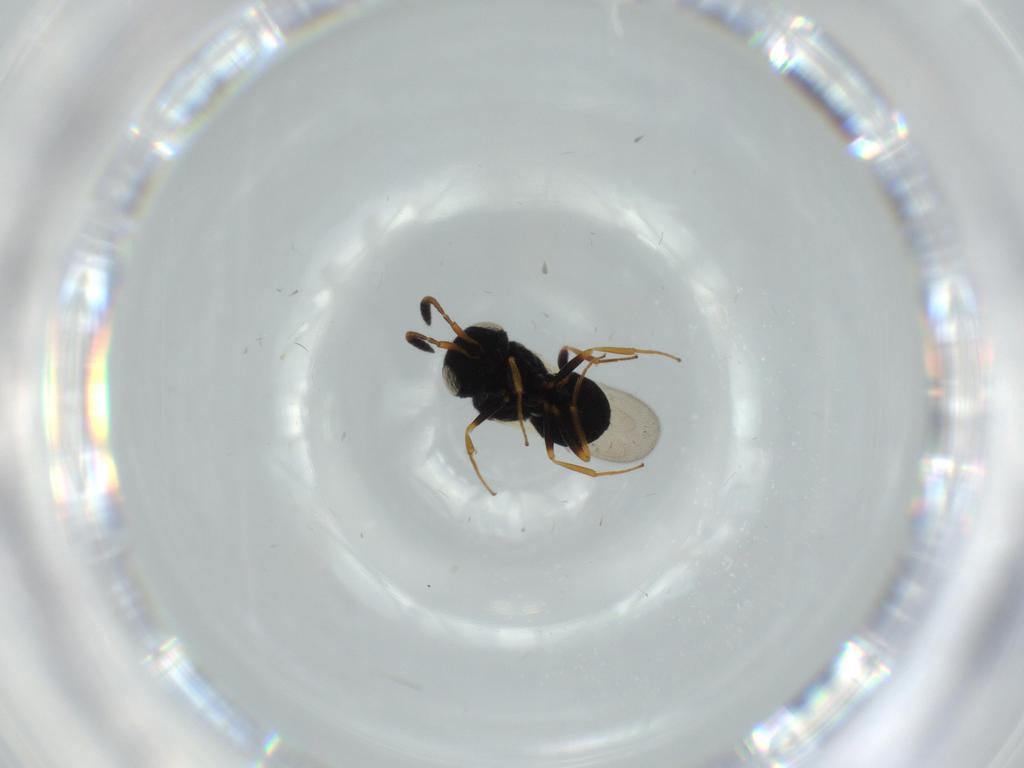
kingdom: Animalia
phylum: Arthropoda
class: Insecta
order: Hymenoptera
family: Scelionidae
